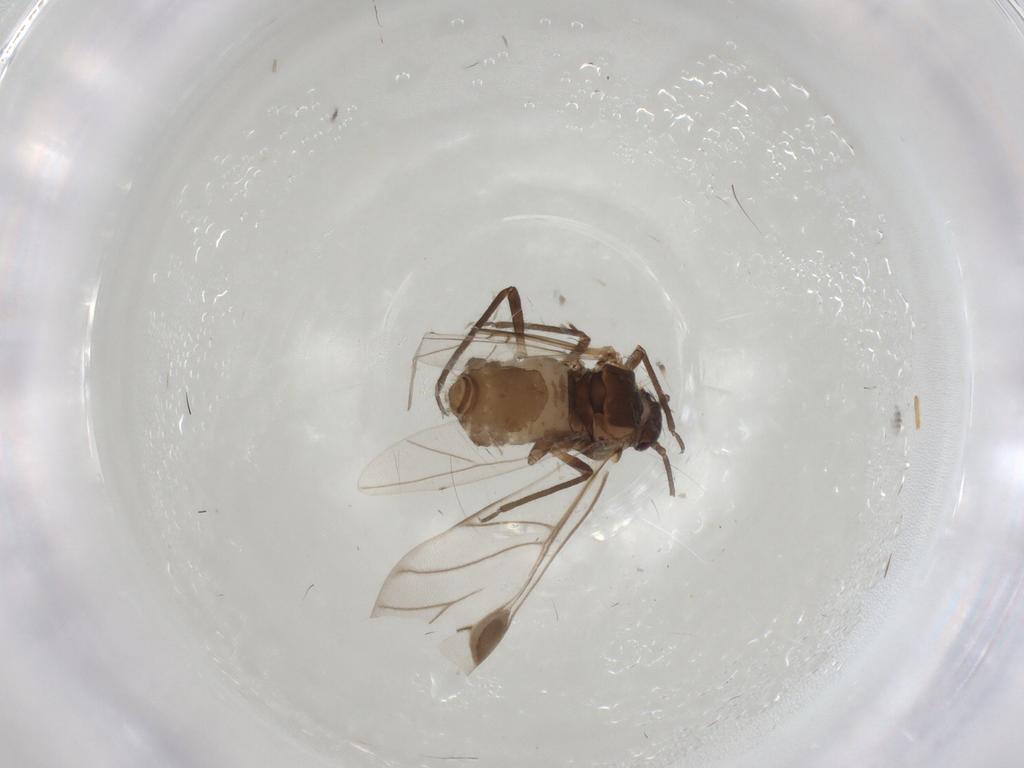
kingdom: Animalia
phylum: Arthropoda
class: Insecta
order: Hemiptera
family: Aphididae
